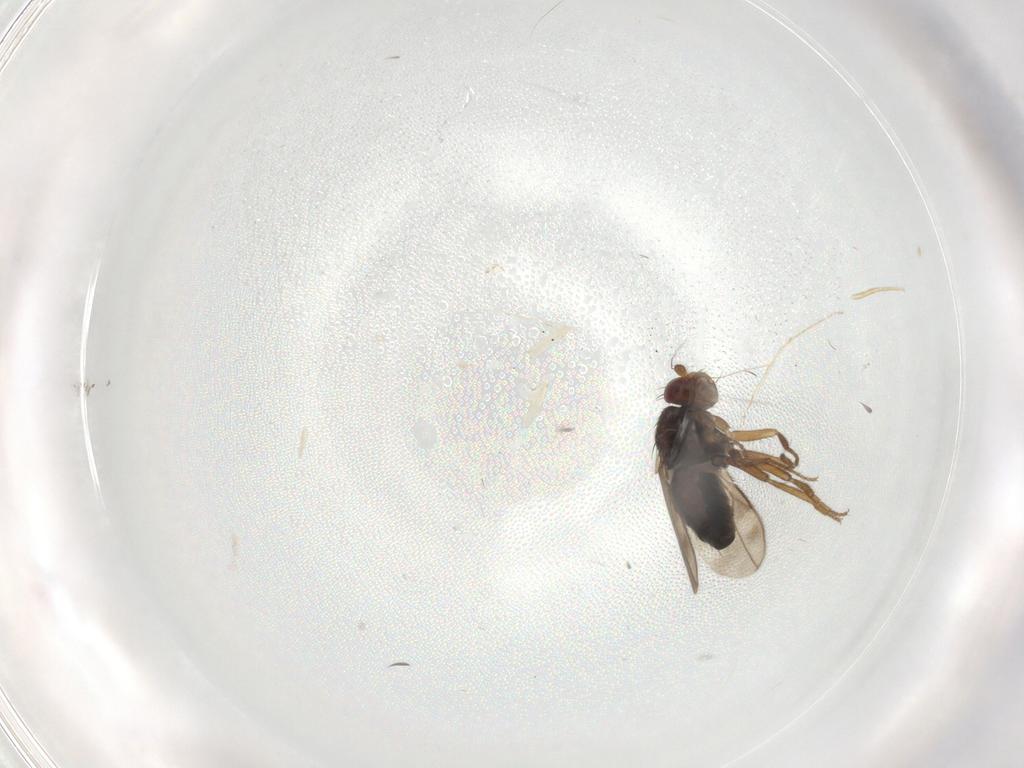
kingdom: Animalia
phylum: Arthropoda
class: Insecta
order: Diptera
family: Sphaeroceridae
